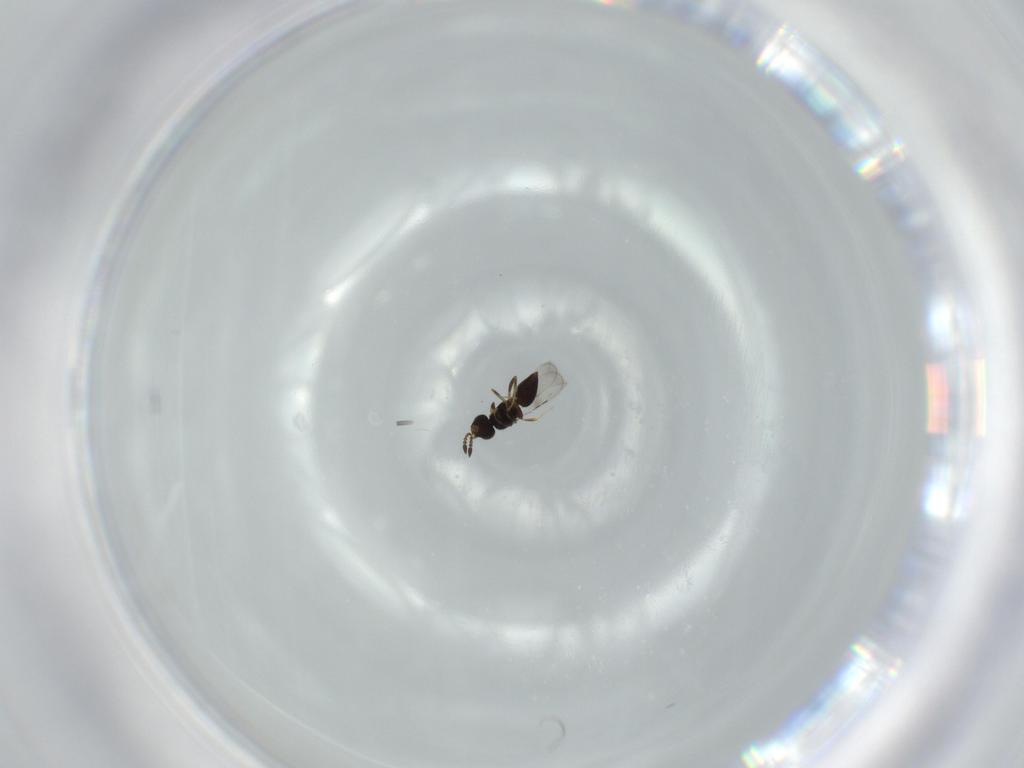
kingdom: Animalia
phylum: Arthropoda
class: Insecta
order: Hymenoptera
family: Ceraphronidae
